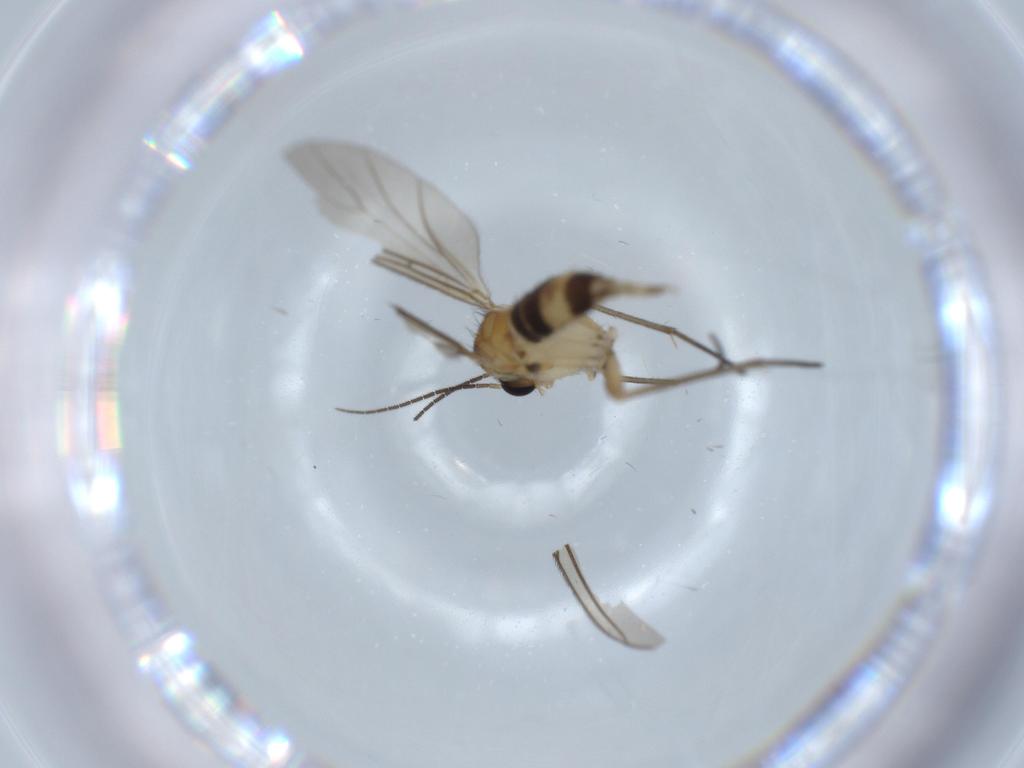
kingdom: Animalia
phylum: Arthropoda
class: Insecta
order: Diptera
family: Sciaridae
